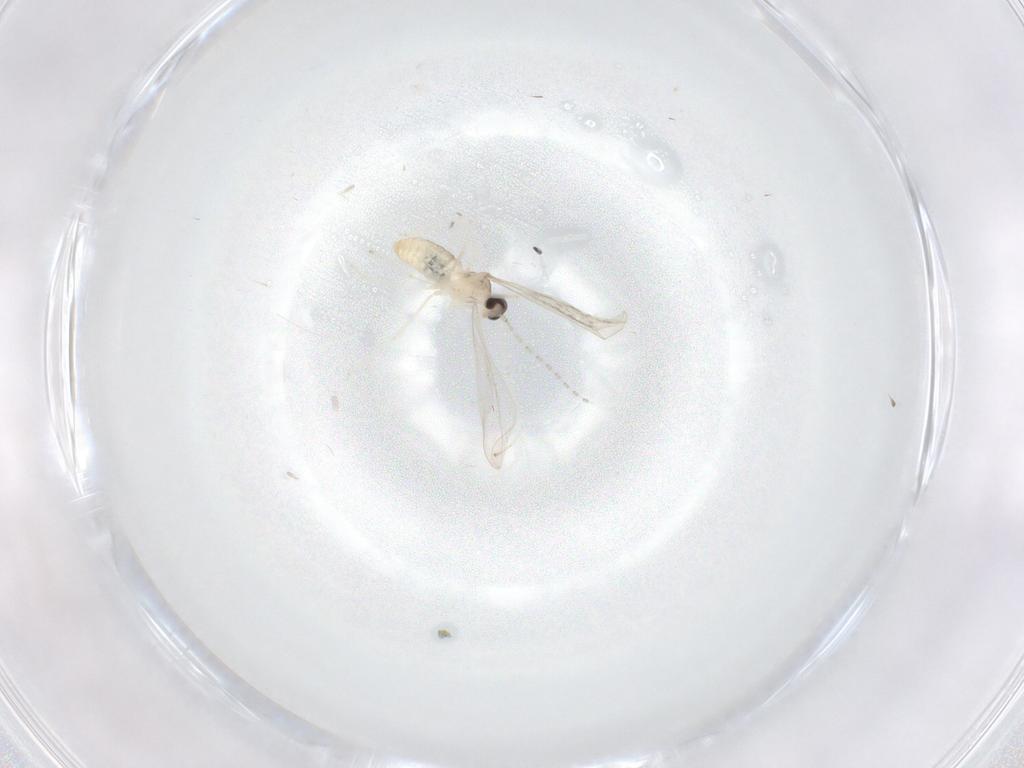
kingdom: Animalia
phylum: Arthropoda
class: Insecta
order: Diptera
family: Cecidomyiidae
